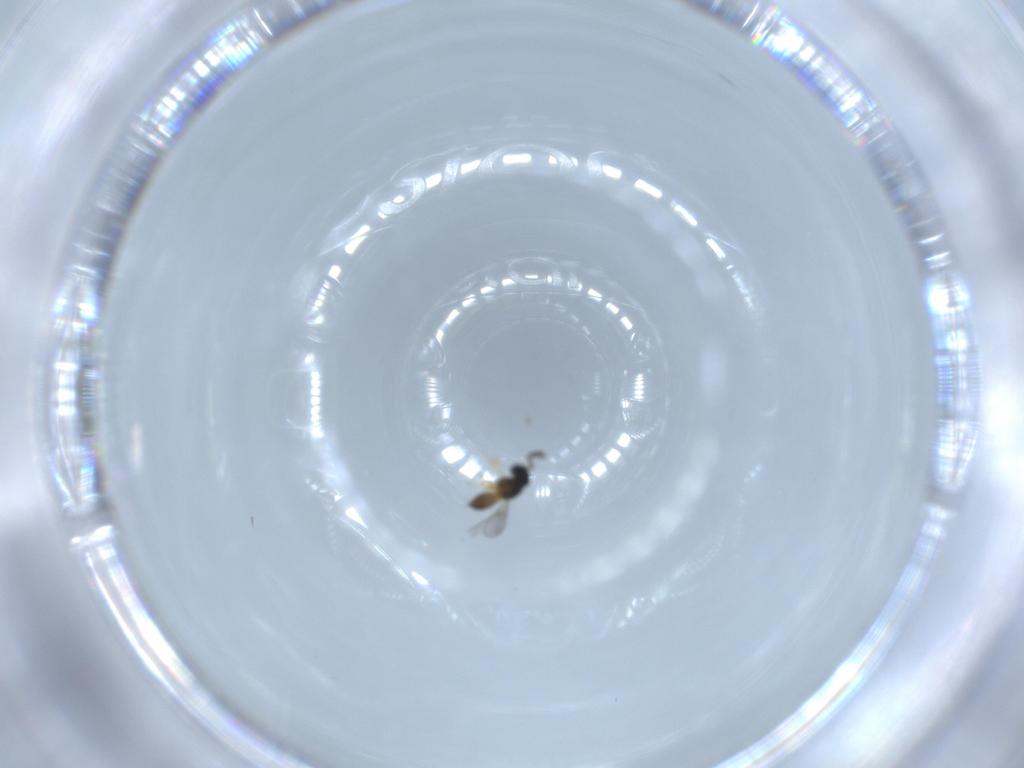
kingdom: Animalia
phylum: Arthropoda
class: Insecta
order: Hymenoptera
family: Scelionidae
